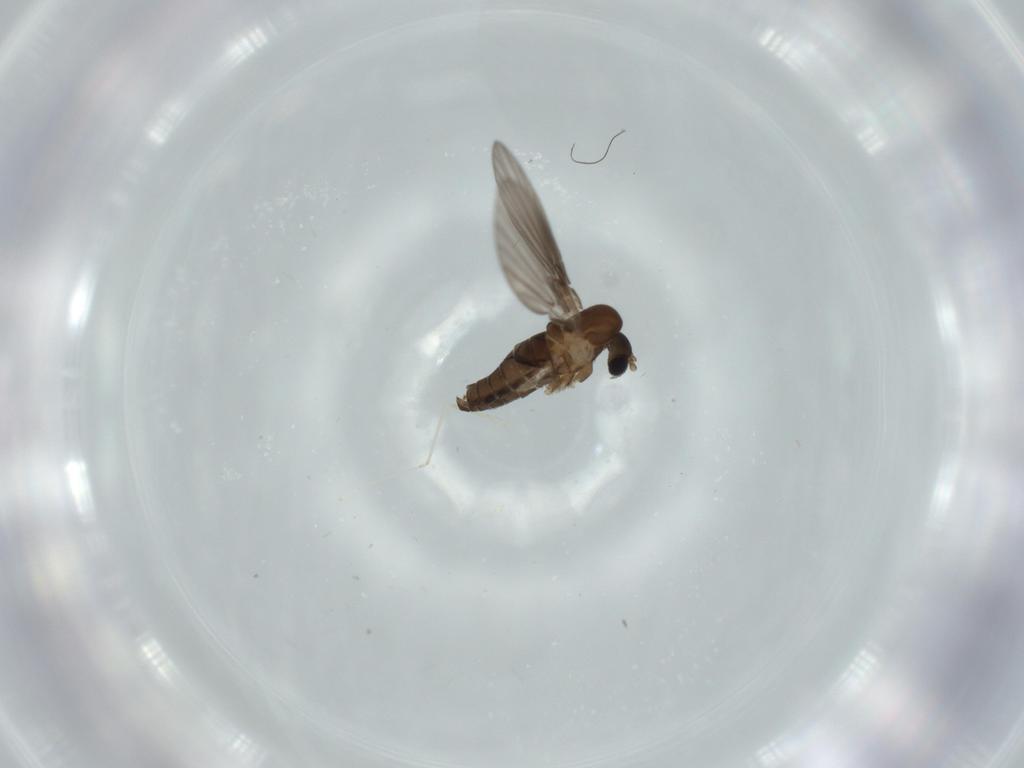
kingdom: Animalia
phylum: Arthropoda
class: Insecta
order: Diptera
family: Psychodidae
